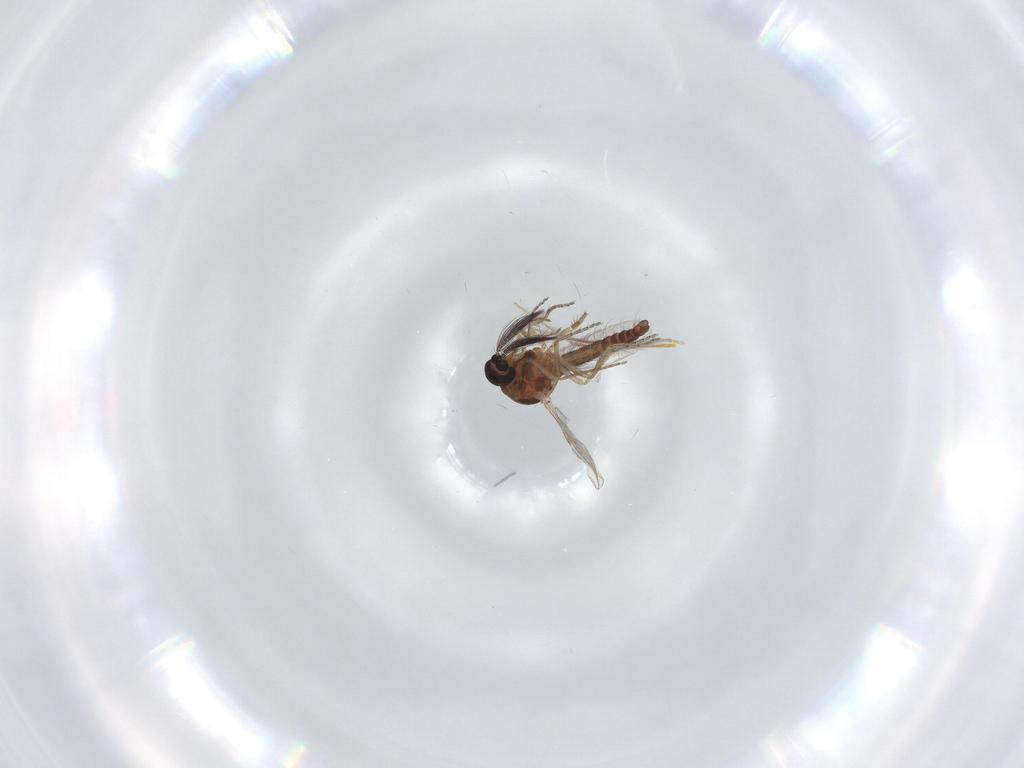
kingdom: Animalia
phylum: Arthropoda
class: Insecta
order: Diptera
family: Ceratopogonidae
